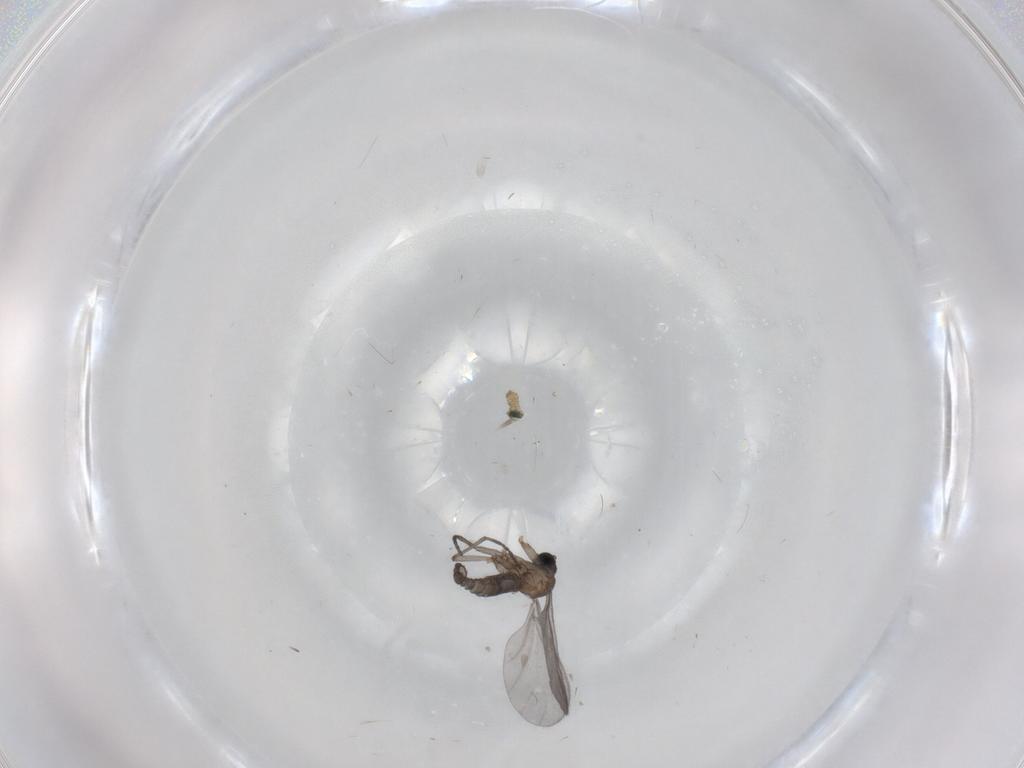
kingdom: Animalia
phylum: Arthropoda
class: Insecta
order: Diptera
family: Sciaridae
